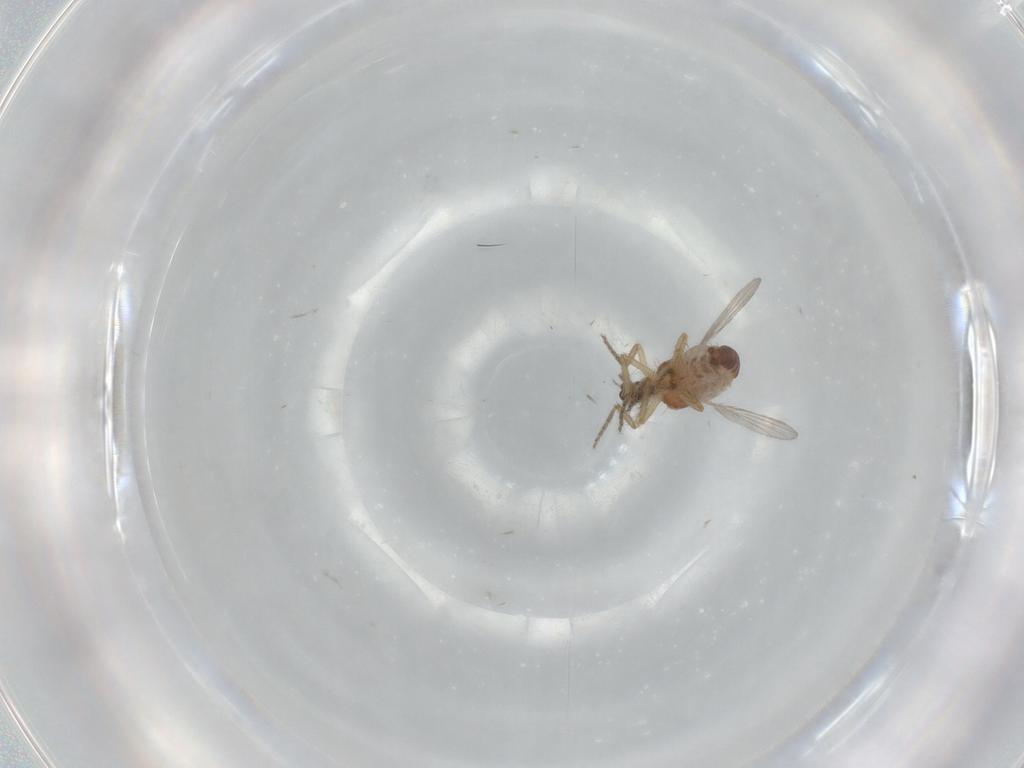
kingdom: Animalia
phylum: Arthropoda
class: Insecta
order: Diptera
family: Ceratopogonidae
